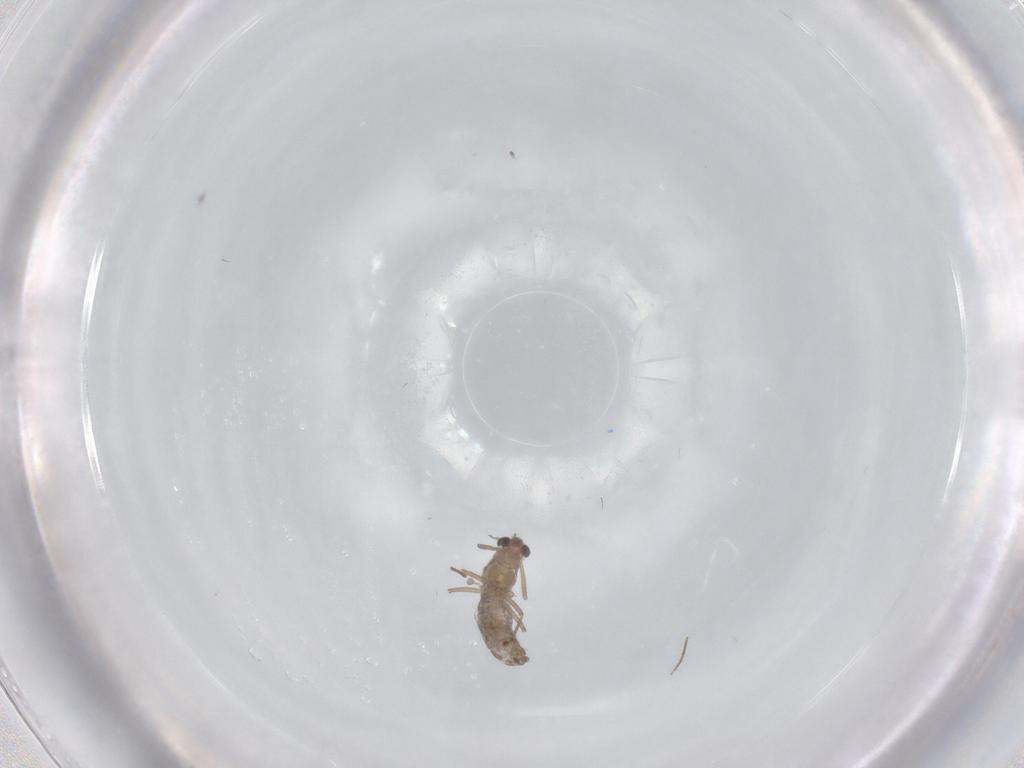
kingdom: Animalia
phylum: Arthropoda
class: Insecta
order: Diptera
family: Chironomidae
